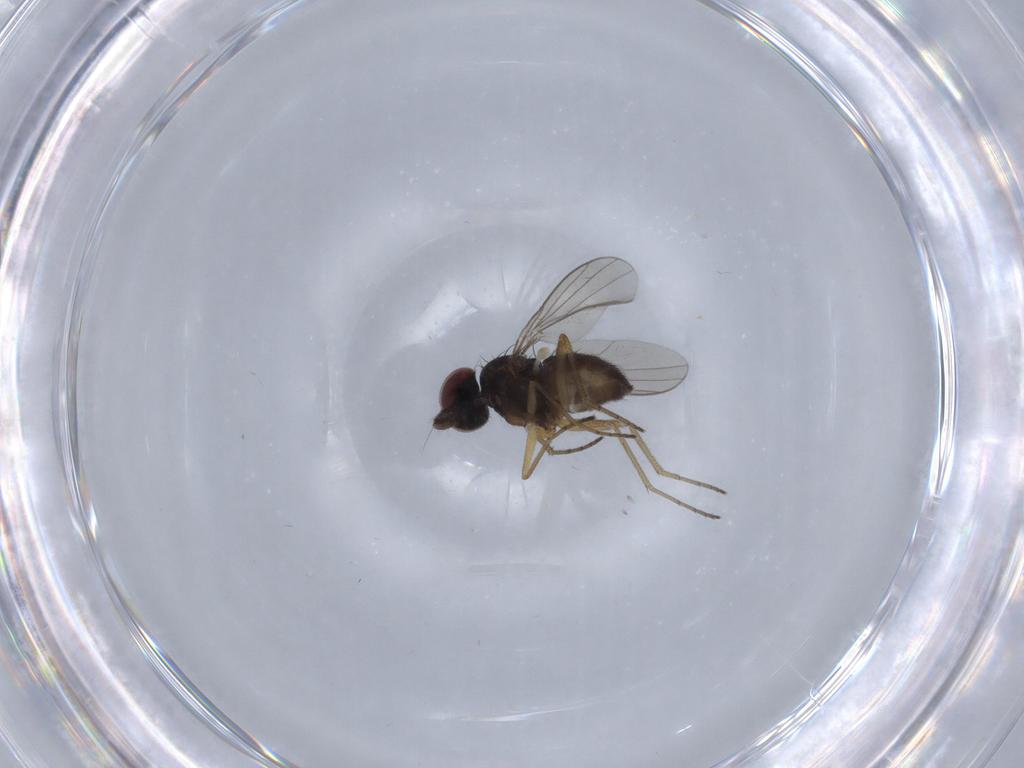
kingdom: Animalia
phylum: Arthropoda
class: Insecta
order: Diptera
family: Dolichopodidae
